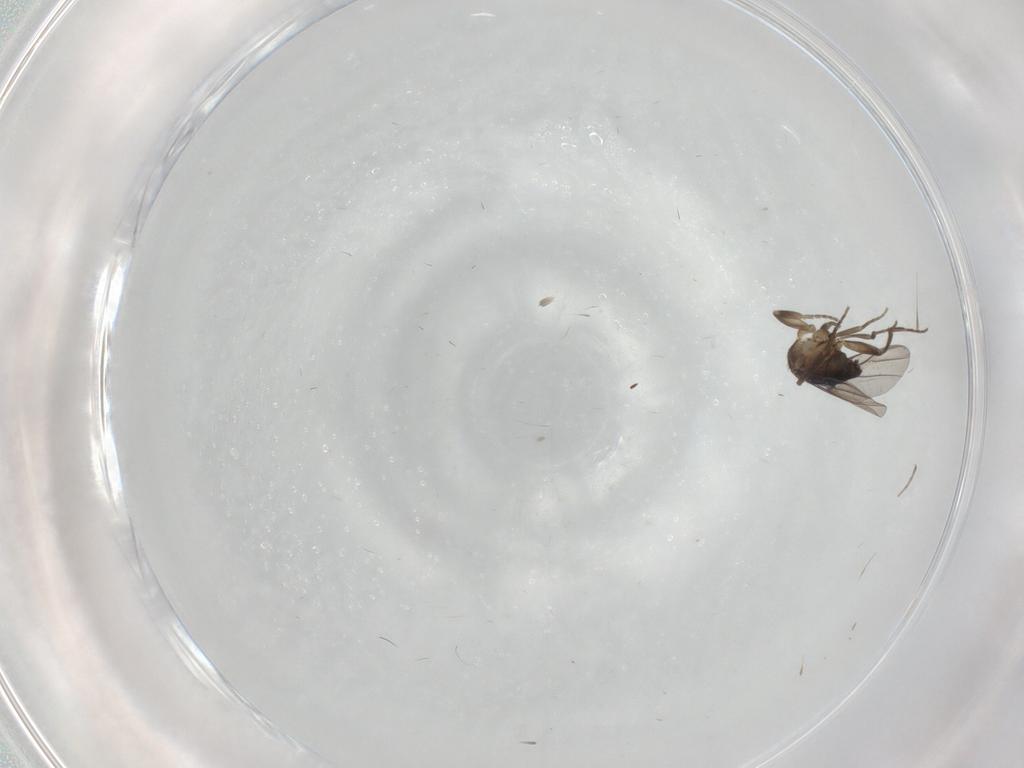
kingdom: Animalia
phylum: Arthropoda
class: Insecta
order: Diptera
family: Cecidomyiidae
